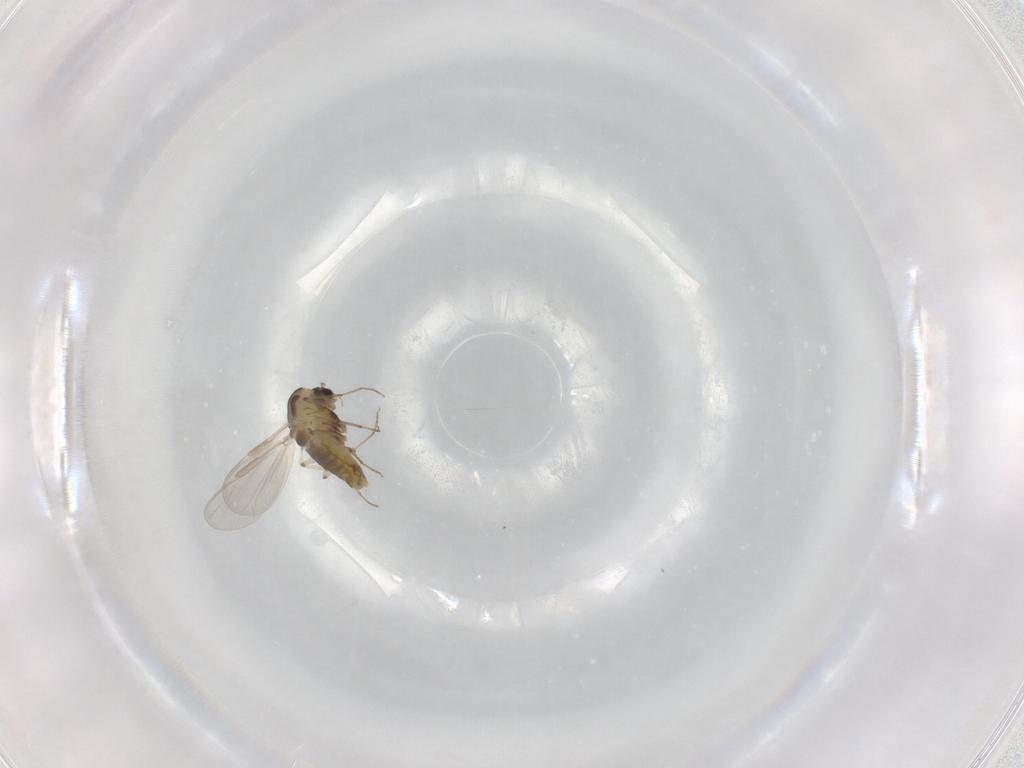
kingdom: Animalia
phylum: Arthropoda
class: Insecta
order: Diptera
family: Chironomidae
